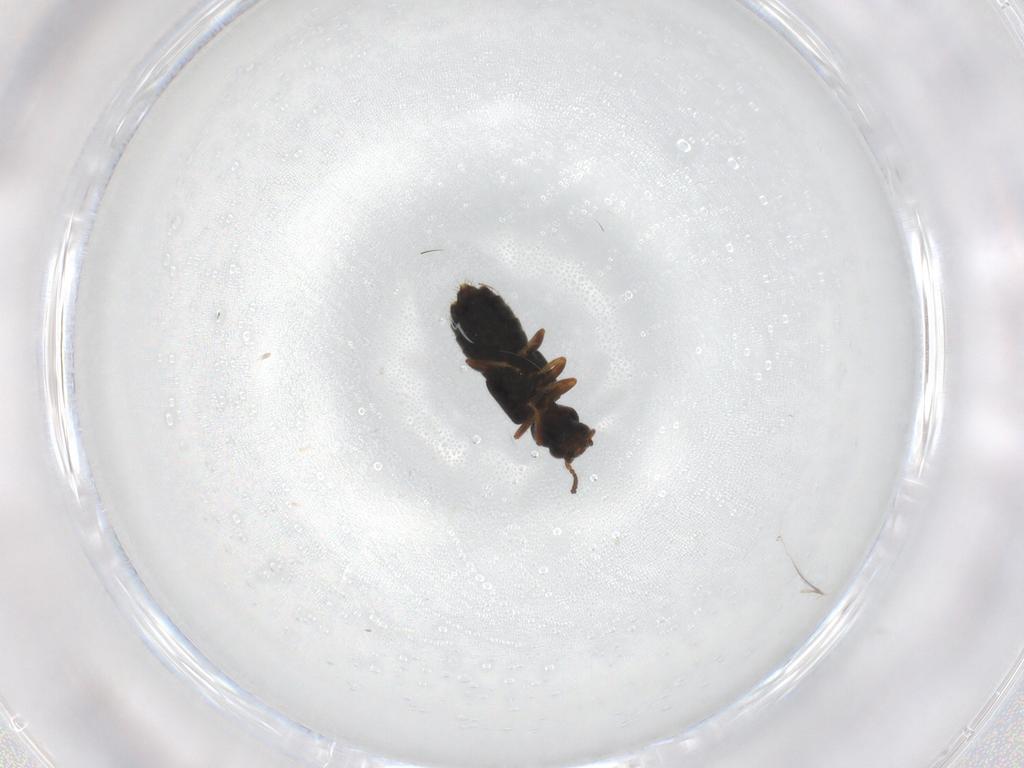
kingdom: Animalia
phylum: Arthropoda
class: Insecta
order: Coleoptera
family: Staphylinidae
